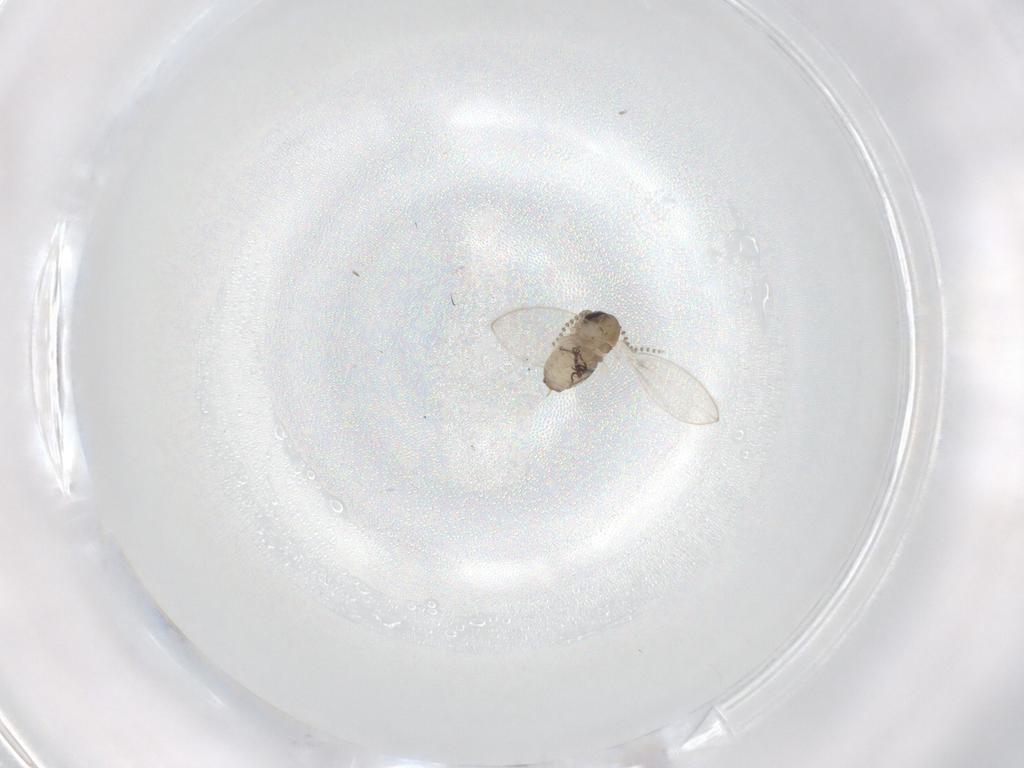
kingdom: Animalia
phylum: Arthropoda
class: Insecta
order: Diptera
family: Psychodidae
